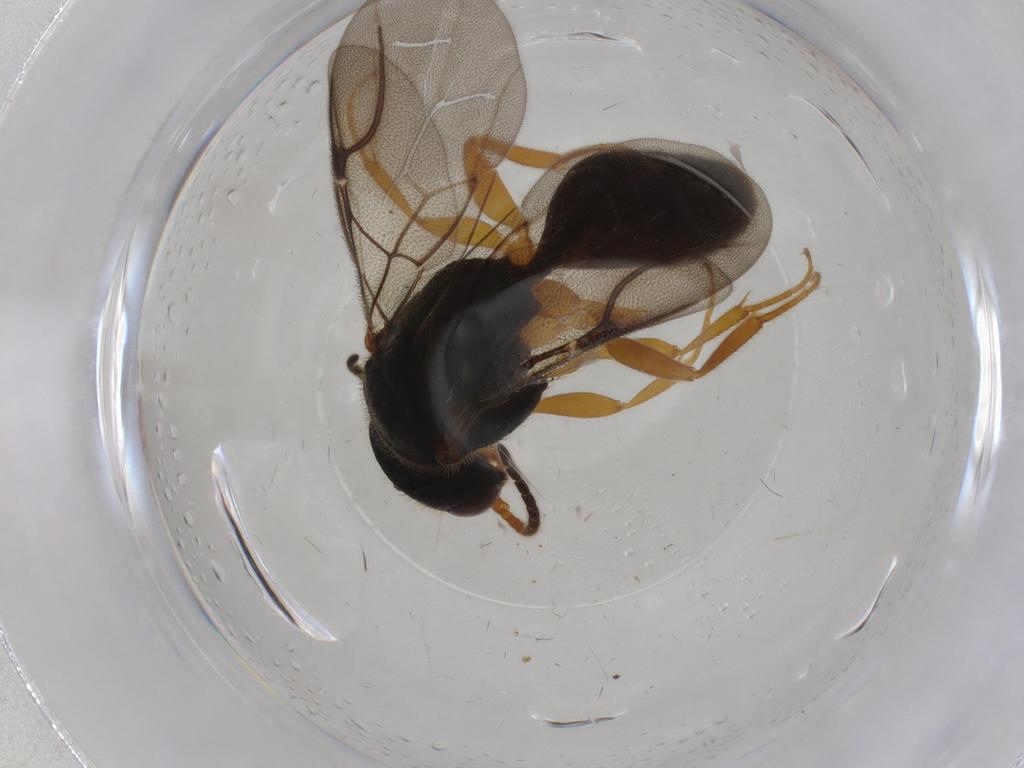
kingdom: Animalia
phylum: Arthropoda
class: Insecta
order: Hymenoptera
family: Bethylidae
